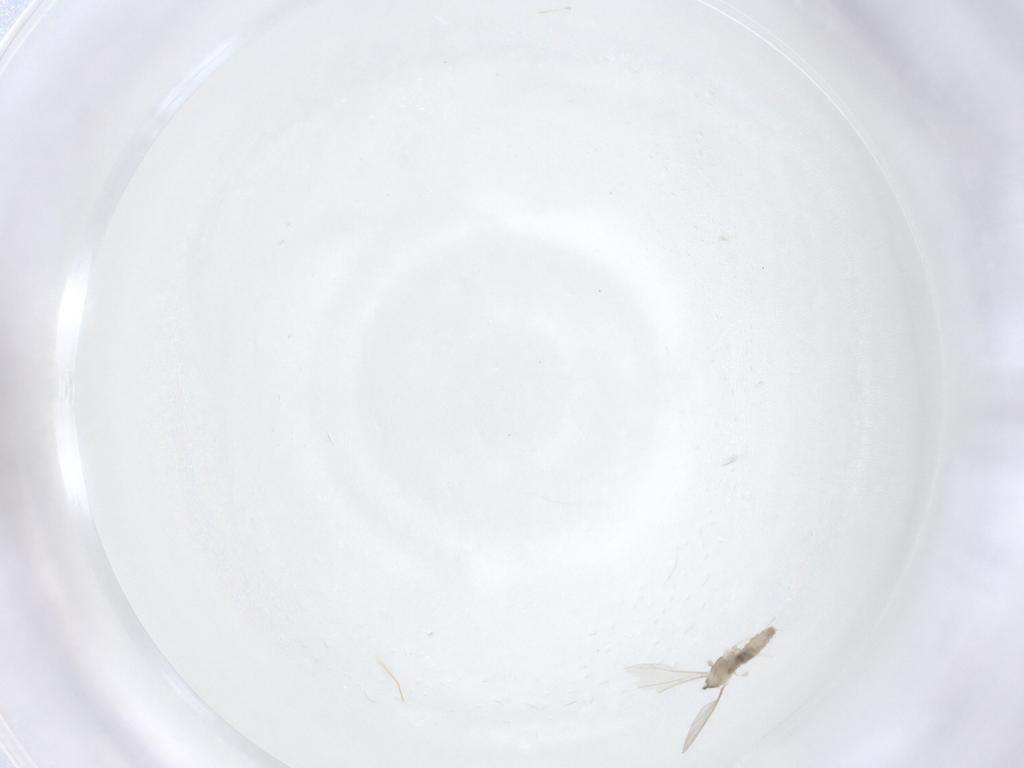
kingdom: Animalia
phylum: Arthropoda
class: Insecta
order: Diptera
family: Cecidomyiidae
